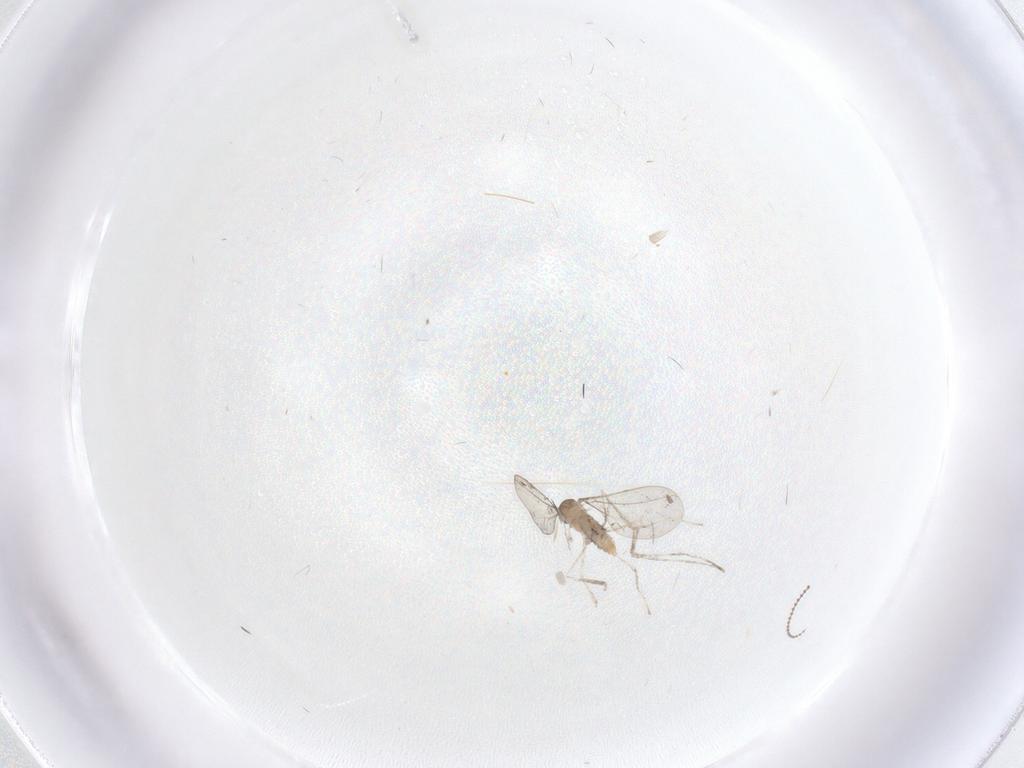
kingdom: Animalia
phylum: Arthropoda
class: Insecta
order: Diptera
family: Cecidomyiidae
